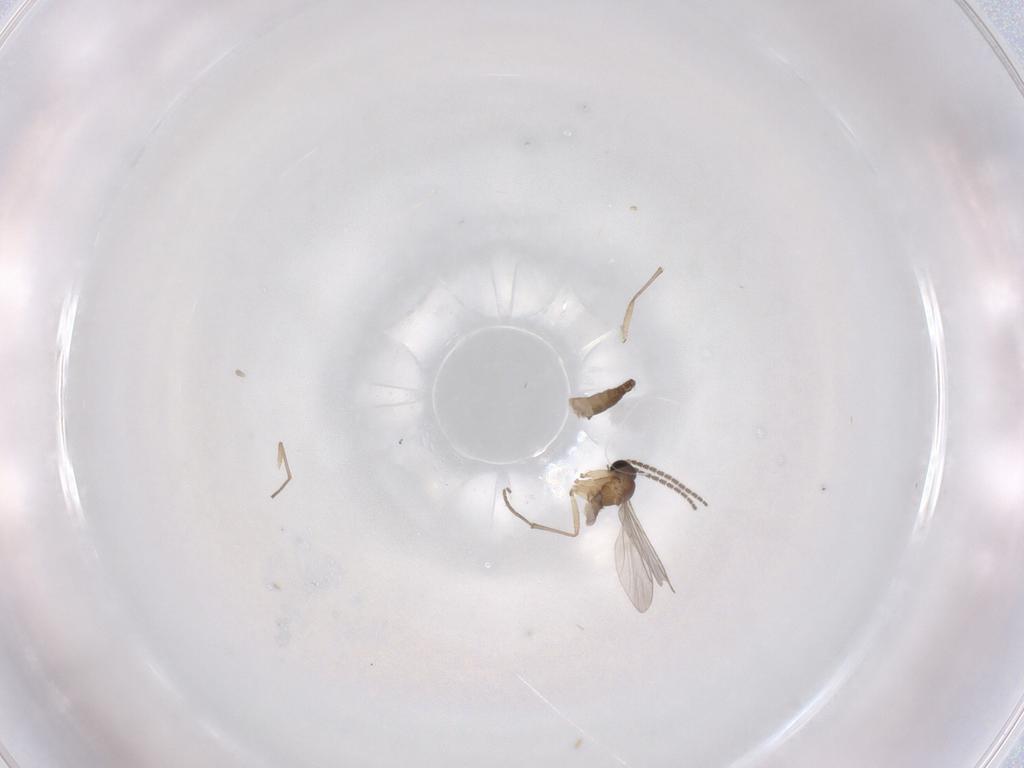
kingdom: Animalia
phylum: Arthropoda
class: Insecta
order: Diptera
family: Sciaridae
